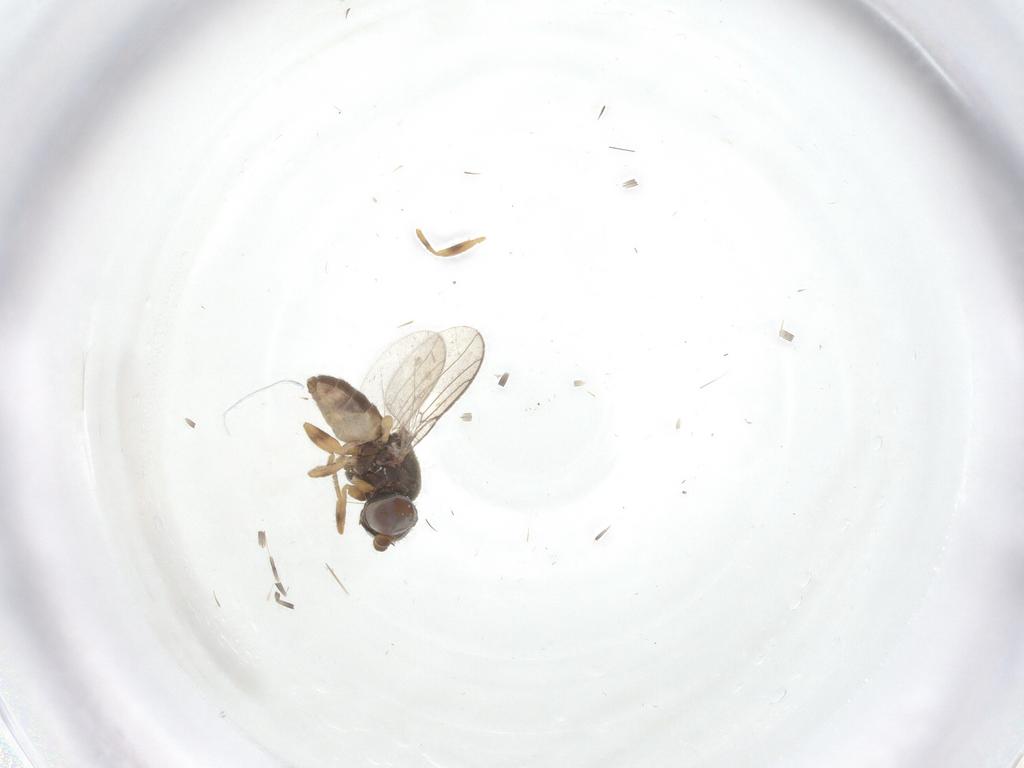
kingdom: Animalia
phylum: Arthropoda
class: Insecta
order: Diptera
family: Chloropidae
